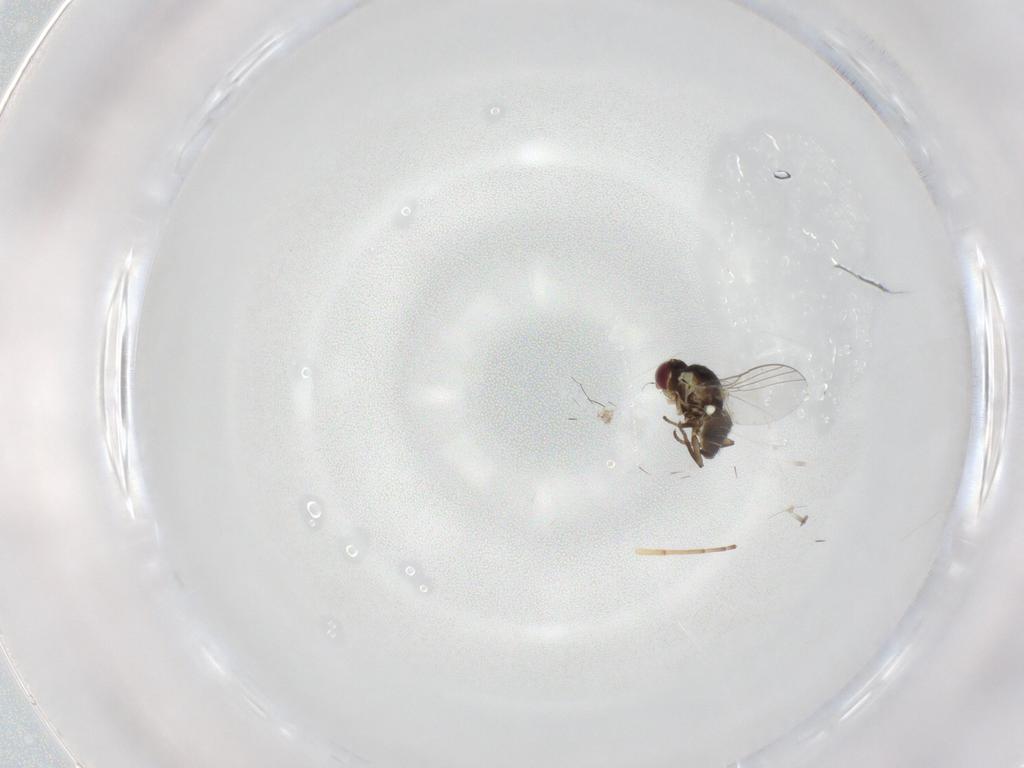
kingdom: Animalia
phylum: Arthropoda
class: Insecta
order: Diptera
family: Agromyzidae
